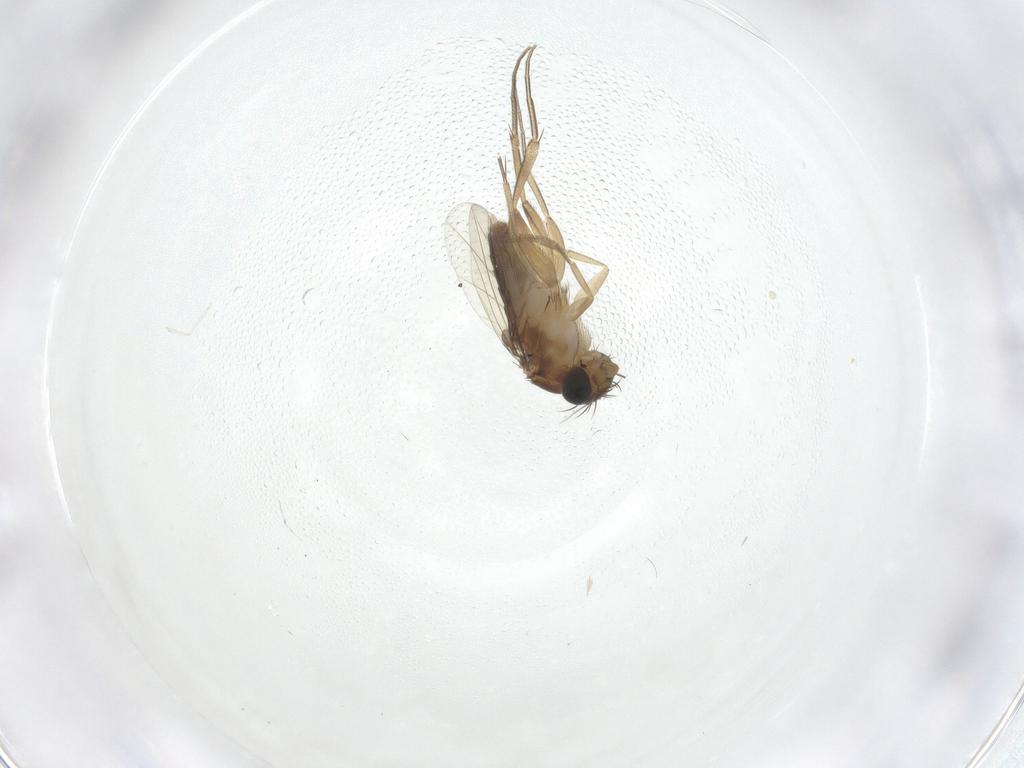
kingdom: Animalia
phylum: Arthropoda
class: Insecta
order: Diptera
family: Phoridae
